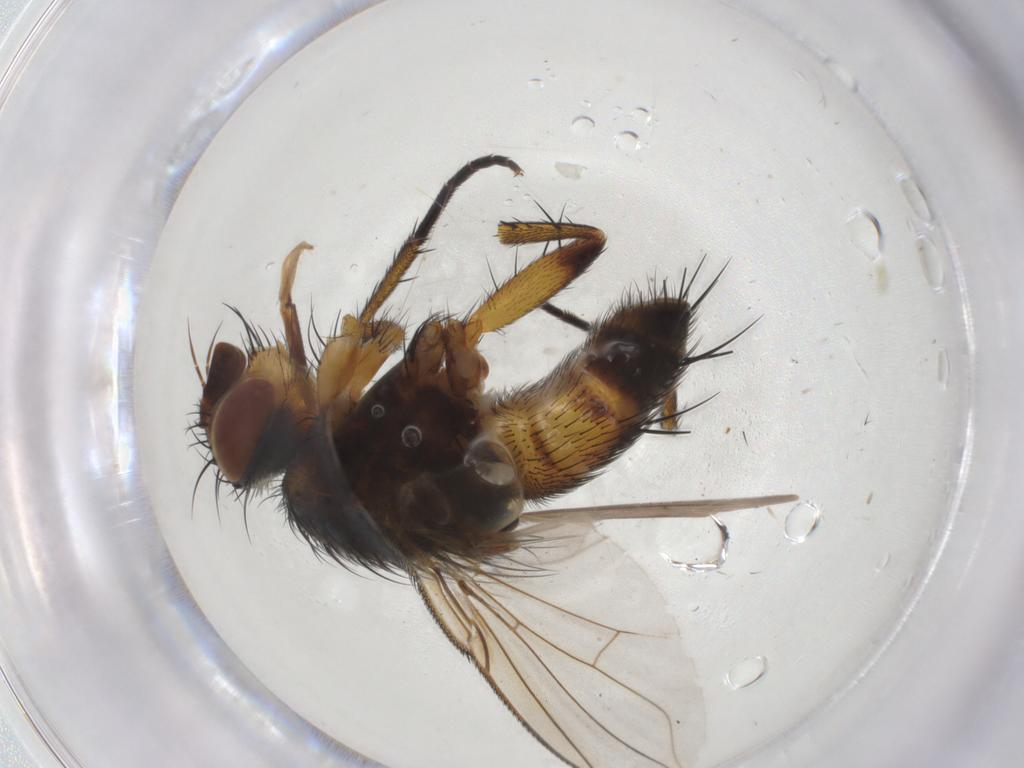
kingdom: Animalia
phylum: Arthropoda
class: Insecta
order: Diptera
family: Tachinidae
